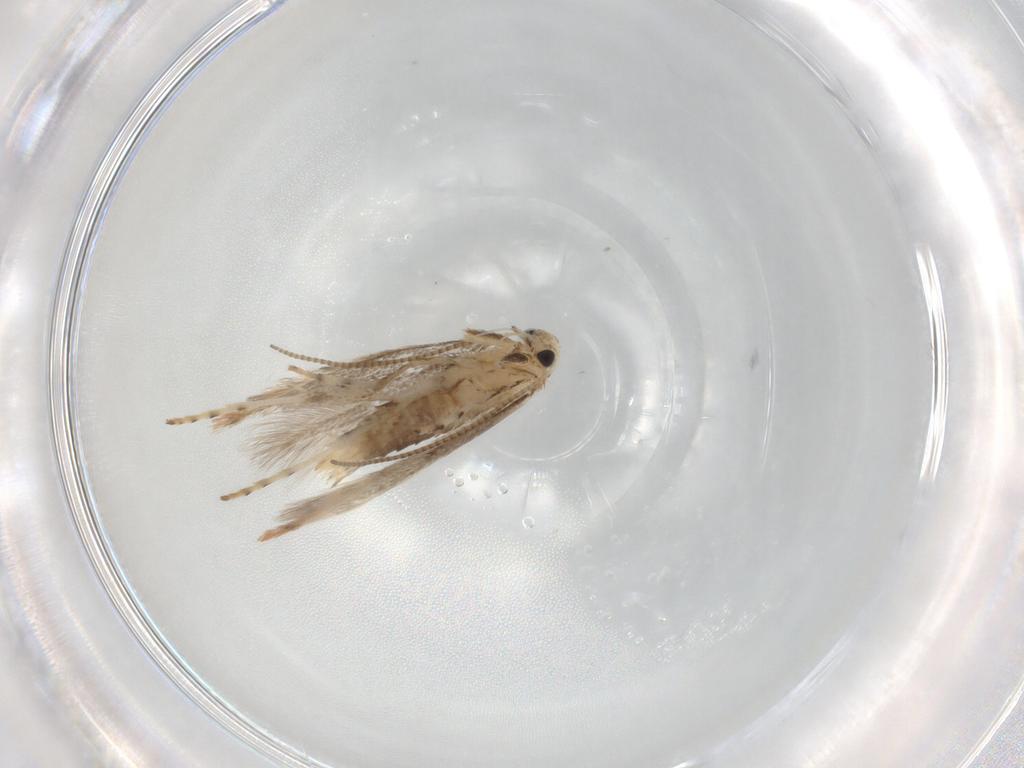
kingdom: Animalia
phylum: Arthropoda
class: Insecta
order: Lepidoptera
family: Gracillariidae
